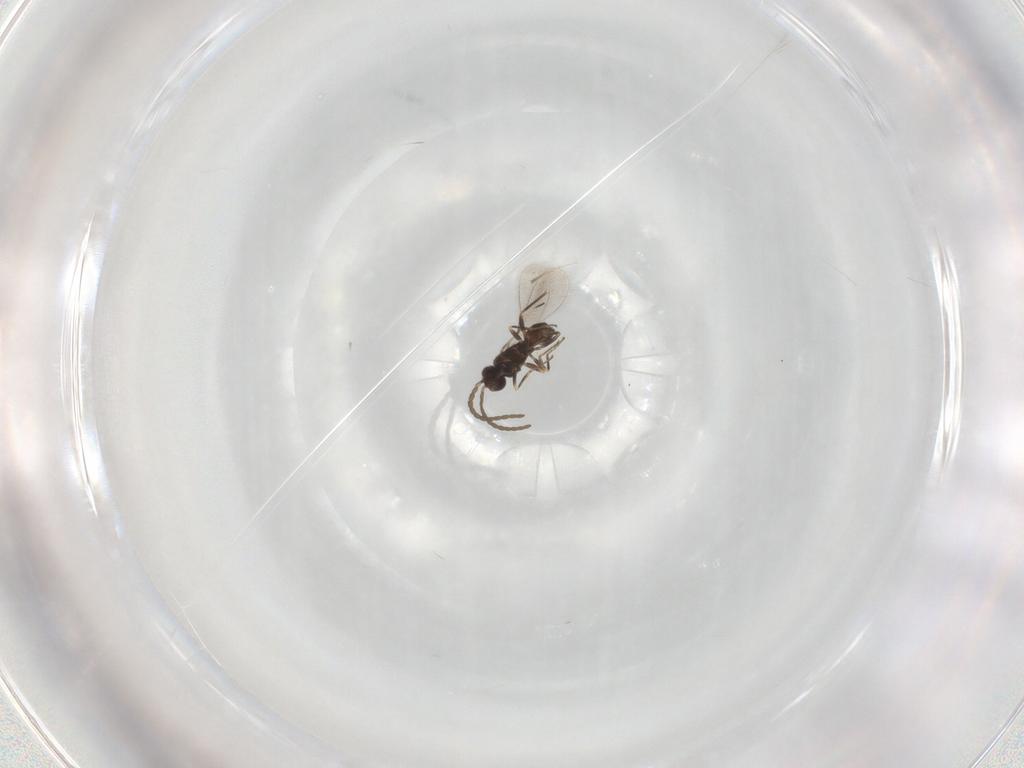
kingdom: Animalia
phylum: Arthropoda
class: Insecta
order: Hymenoptera
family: Mymaridae
